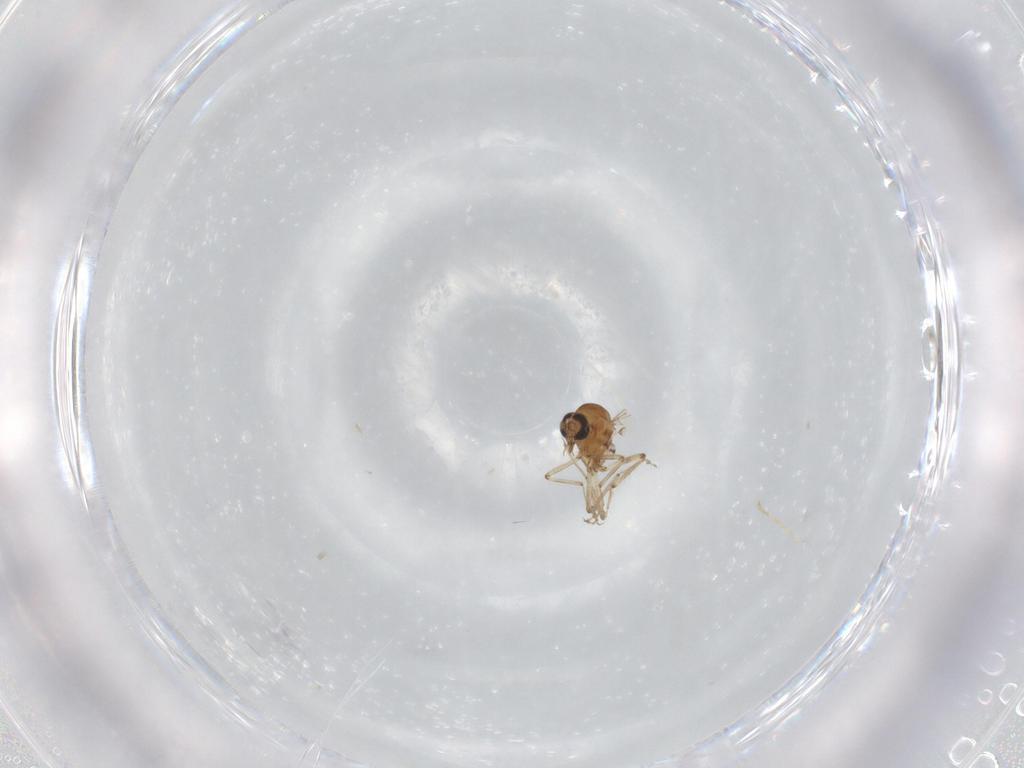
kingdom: Animalia
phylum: Arthropoda
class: Insecta
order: Diptera
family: Ceratopogonidae
